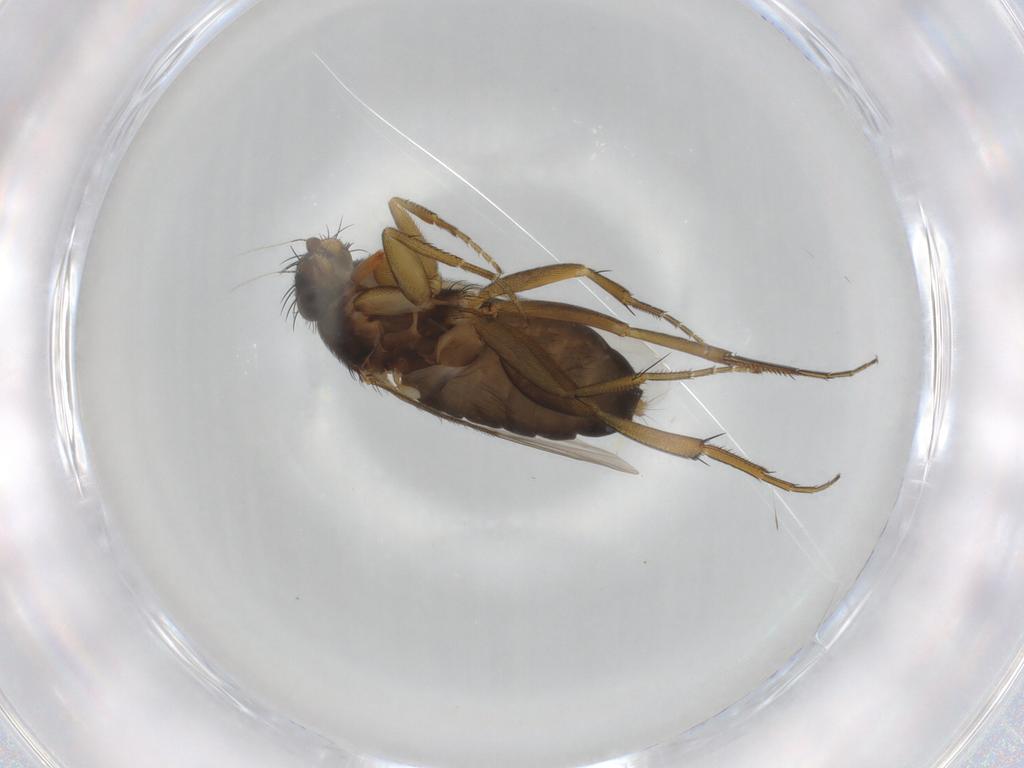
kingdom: Animalia
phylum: Arthropoda
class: Insecta
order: Diptera
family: Phoridae
